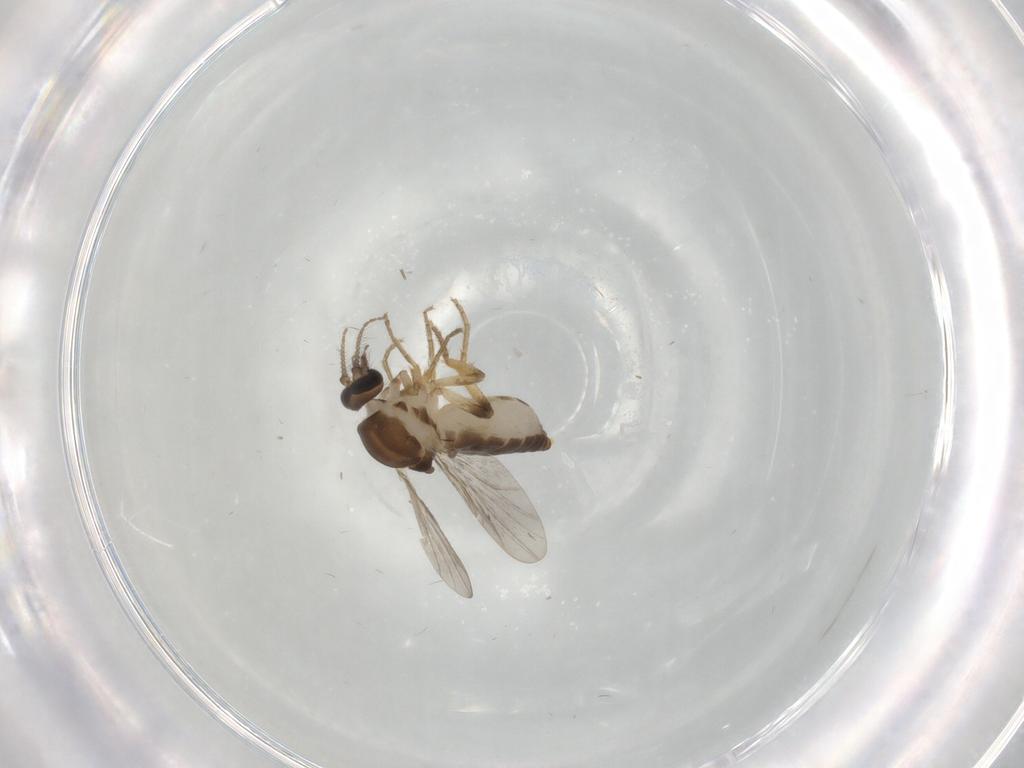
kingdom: Animalia
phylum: Arthropoda
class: Insecta
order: Diptera
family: Ceratopogonidae
